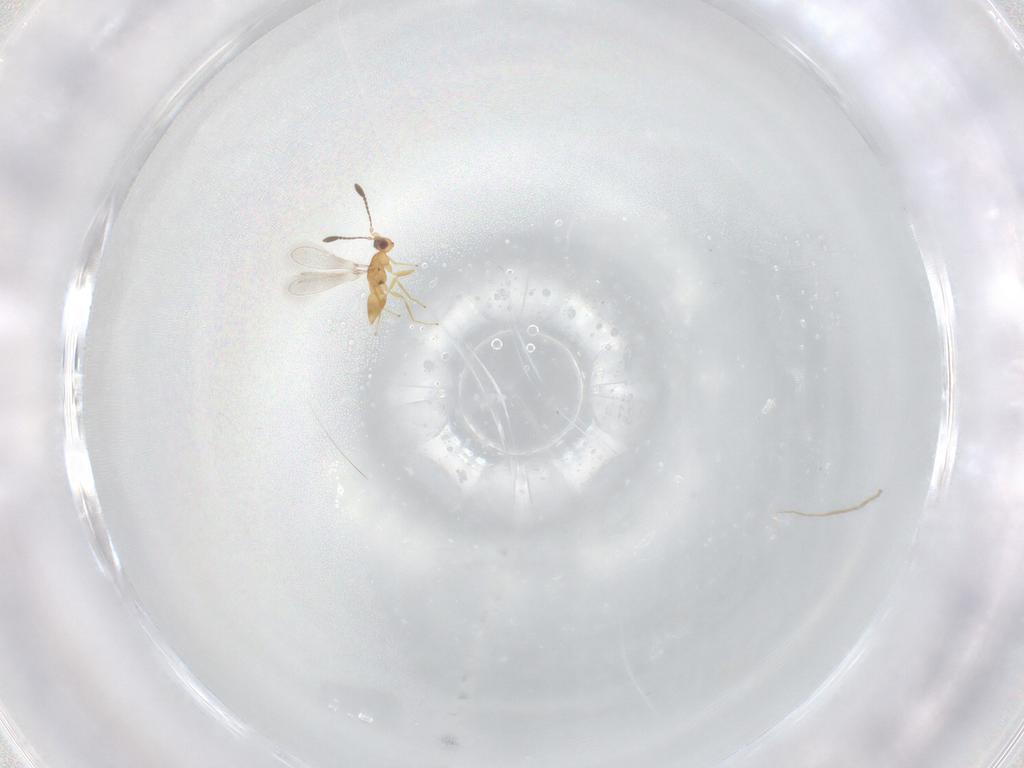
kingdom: Animalia
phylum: Arthropoda
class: Insecta
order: Hymenoptera
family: Mymaridae
